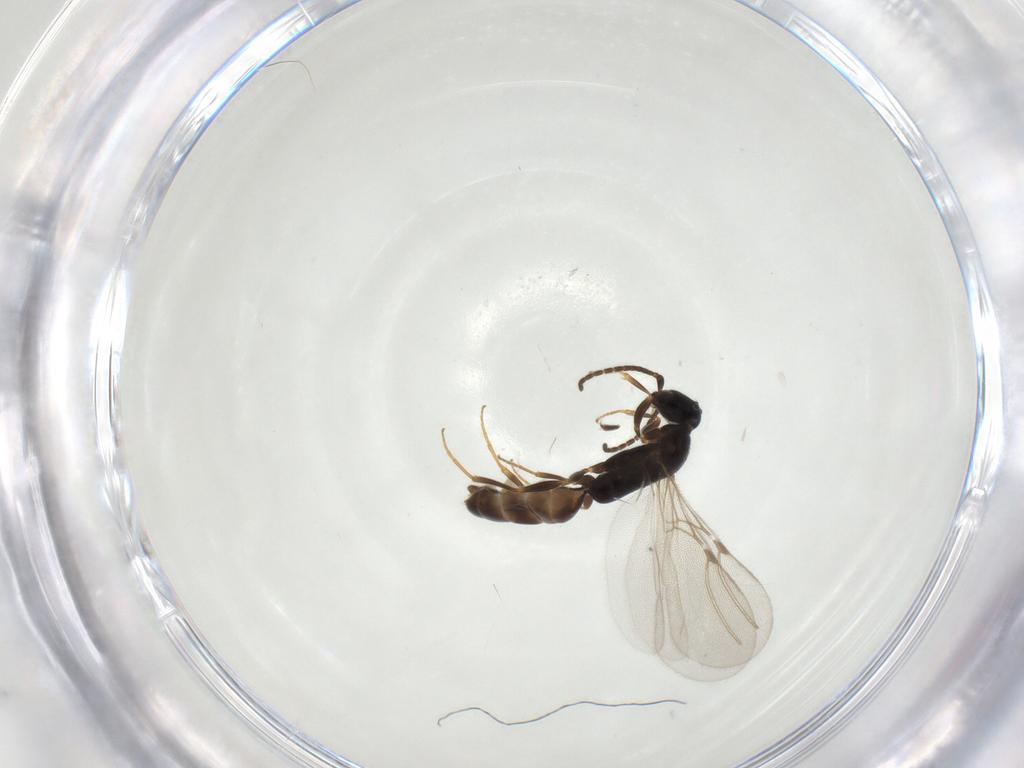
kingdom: Animalia
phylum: Arthropoda
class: Insecta
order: Hymenoptera
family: Mutillidae
